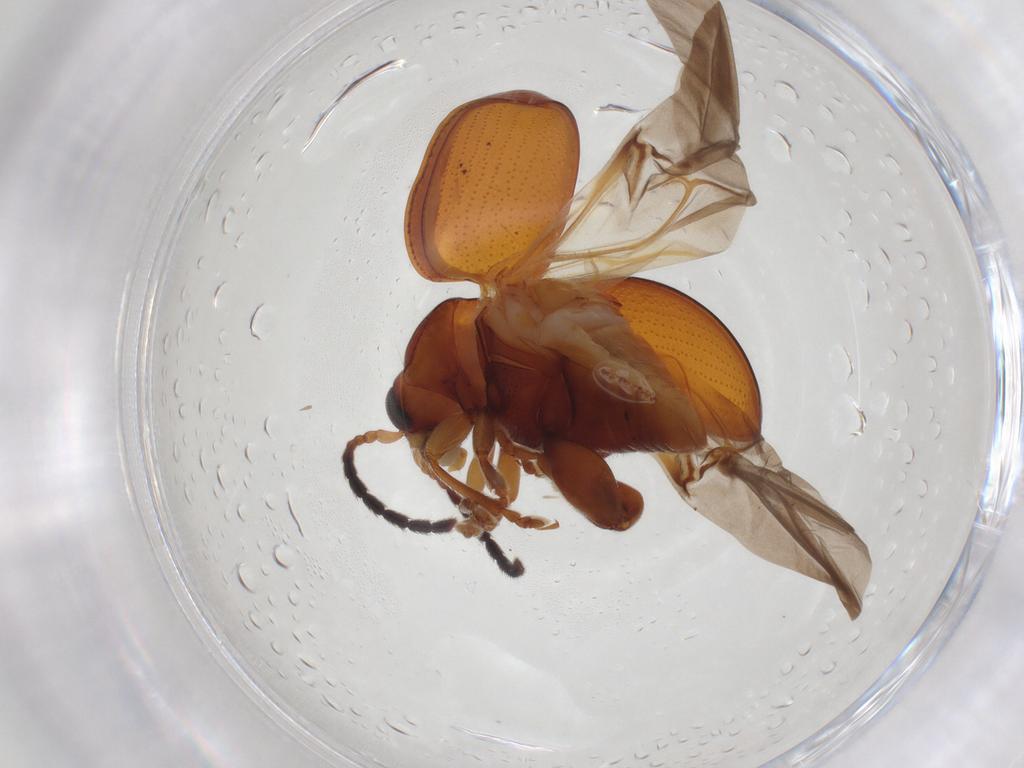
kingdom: Animalia
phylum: Arthropoda
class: Insecta
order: Coleoptera
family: Chrysomelidae
